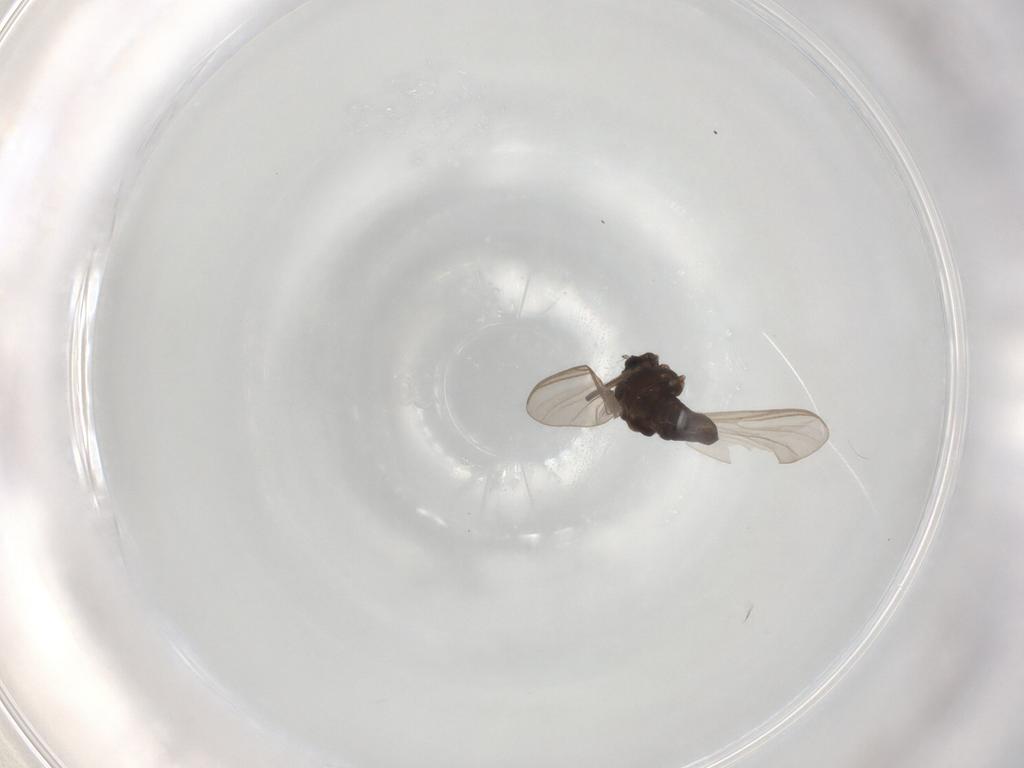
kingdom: Animalia
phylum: Arthropoda
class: Insecta
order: Diptera
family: Chironomidae
